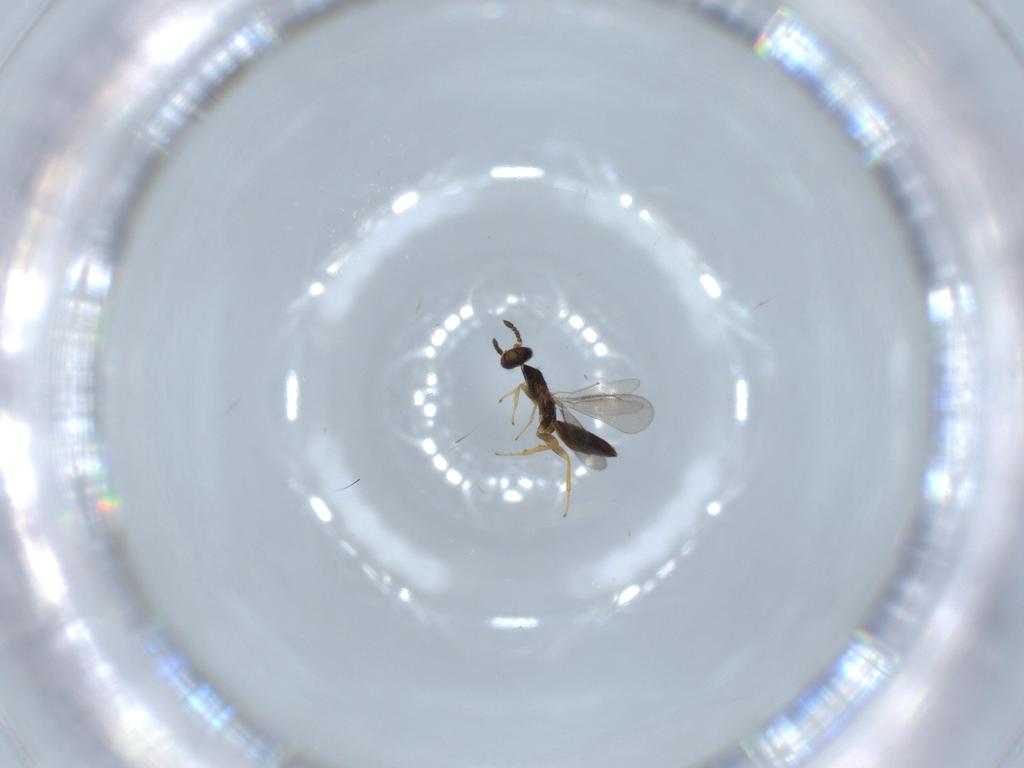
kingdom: Animalia
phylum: Arthropoda
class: Insecta
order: Hymenoptera
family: Eulophidae
